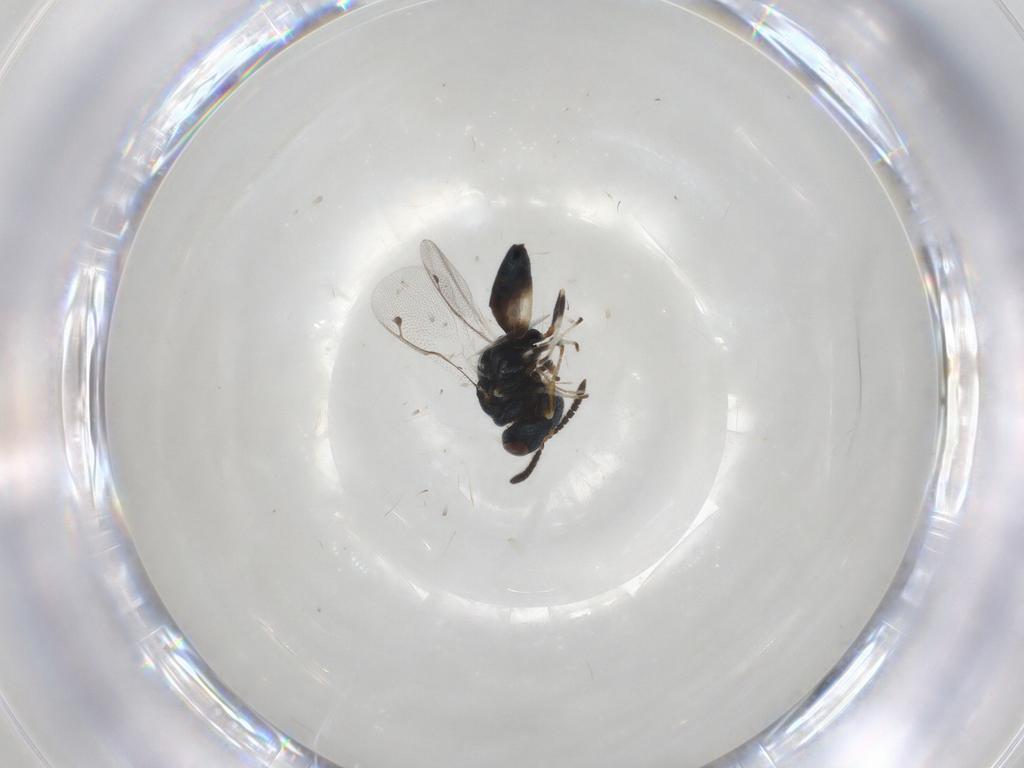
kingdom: Animalia
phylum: Arthropoda
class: Insecta
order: Hymenoptera
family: Pteromalidae
